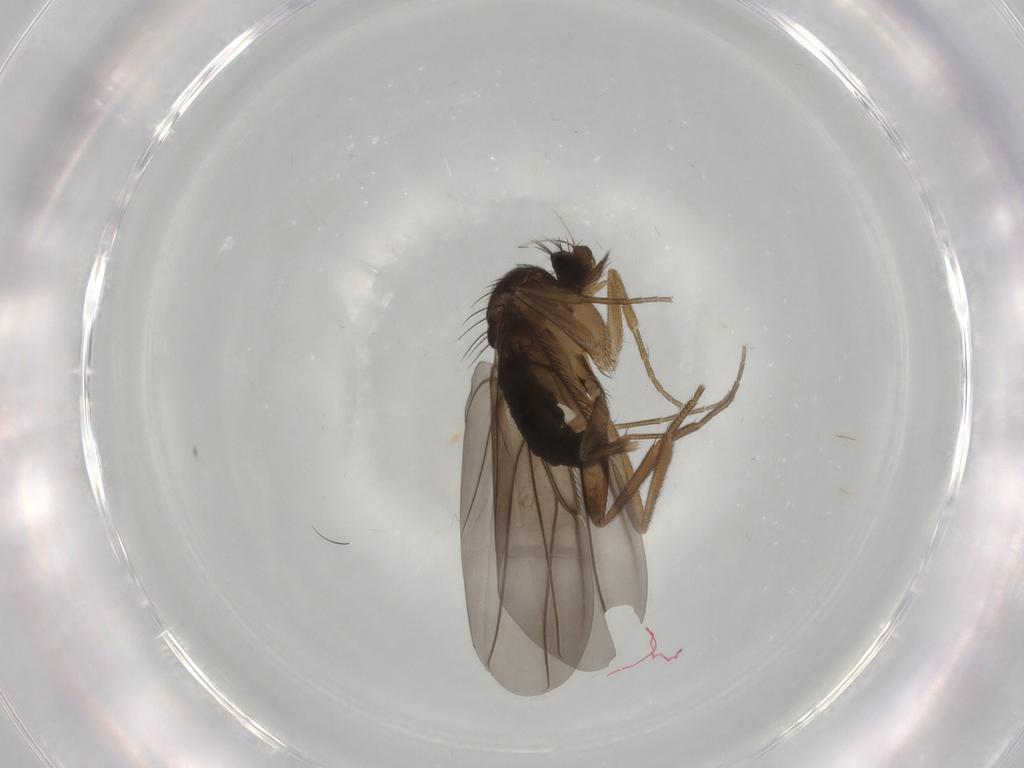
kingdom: Animalia
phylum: Arthropoda
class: Insecta
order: Diptera
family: Phoridae
